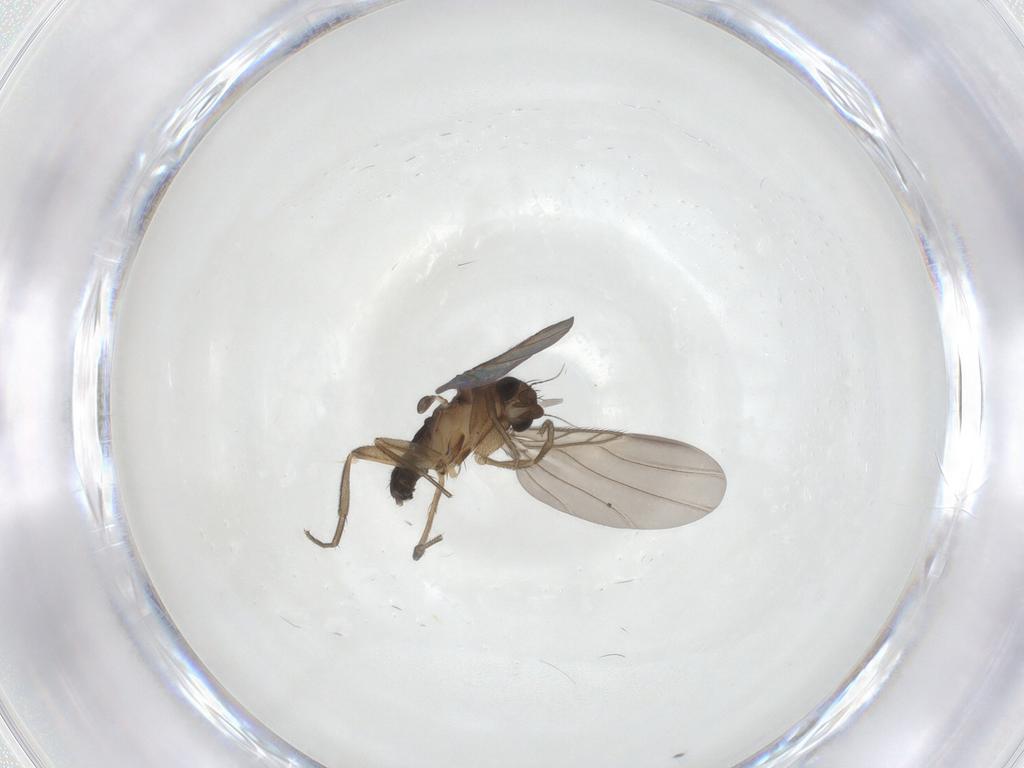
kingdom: Animalia
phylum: Arthropoda
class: Insecta
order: Diptera
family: Phoridae
